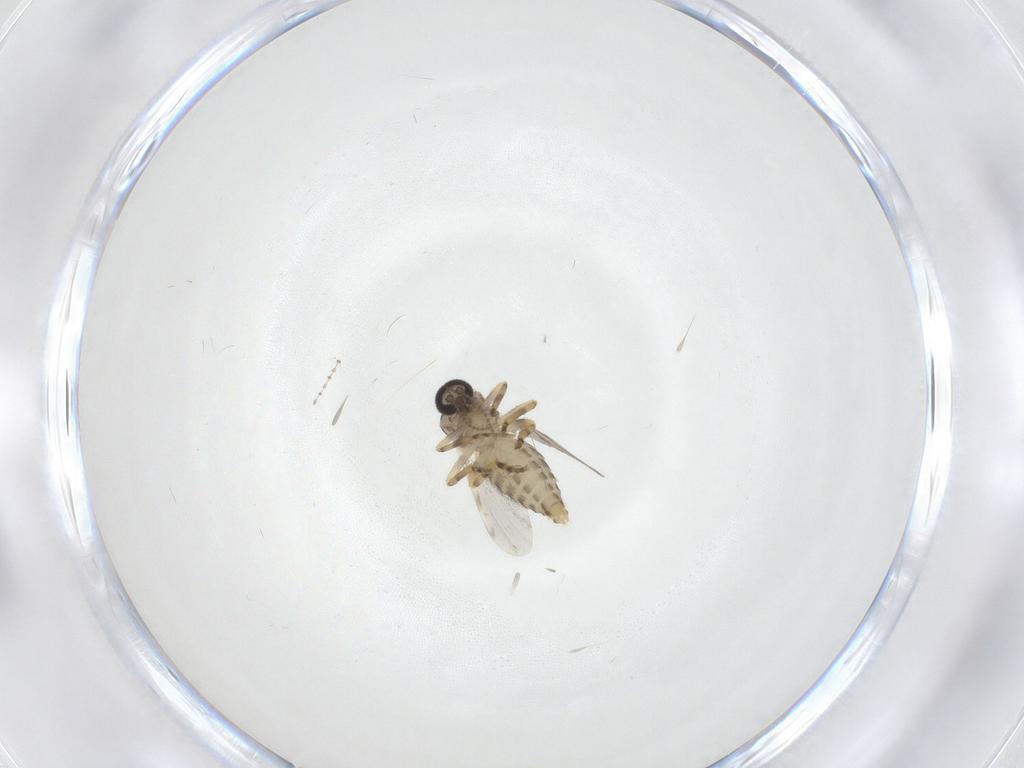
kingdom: Animalia
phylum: Arthropoda
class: Insecta
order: Diptera
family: Ceratopogonidae
